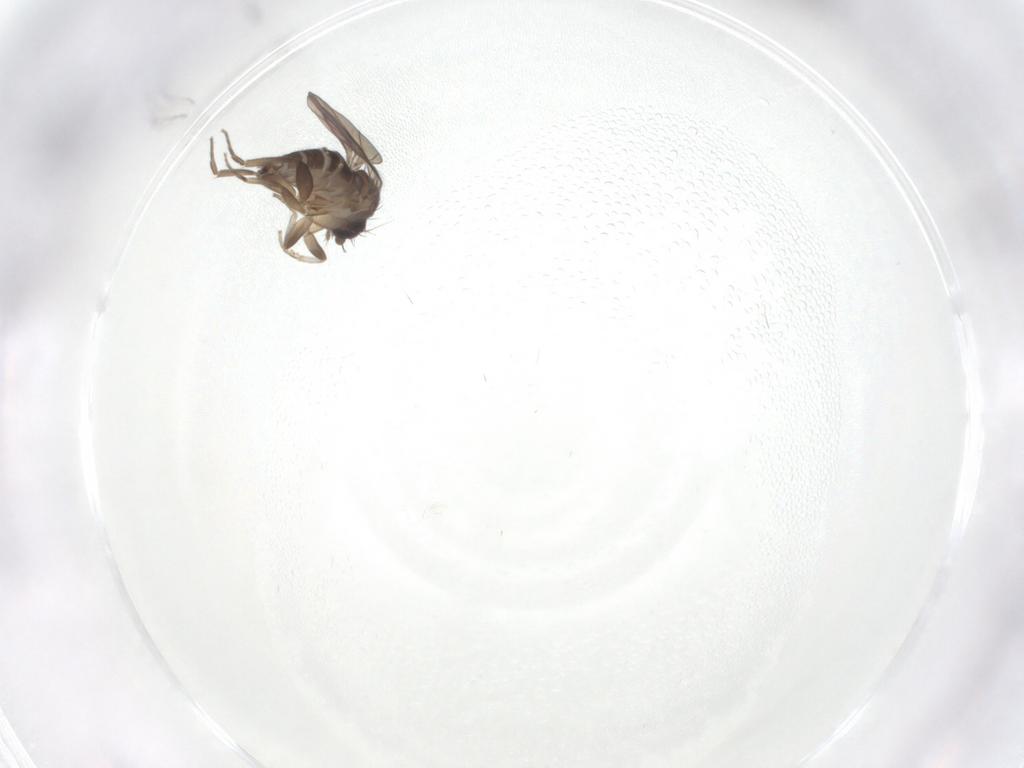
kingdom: Animalia
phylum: Arthropoda
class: Insecta
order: Diptera
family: Phoridae
